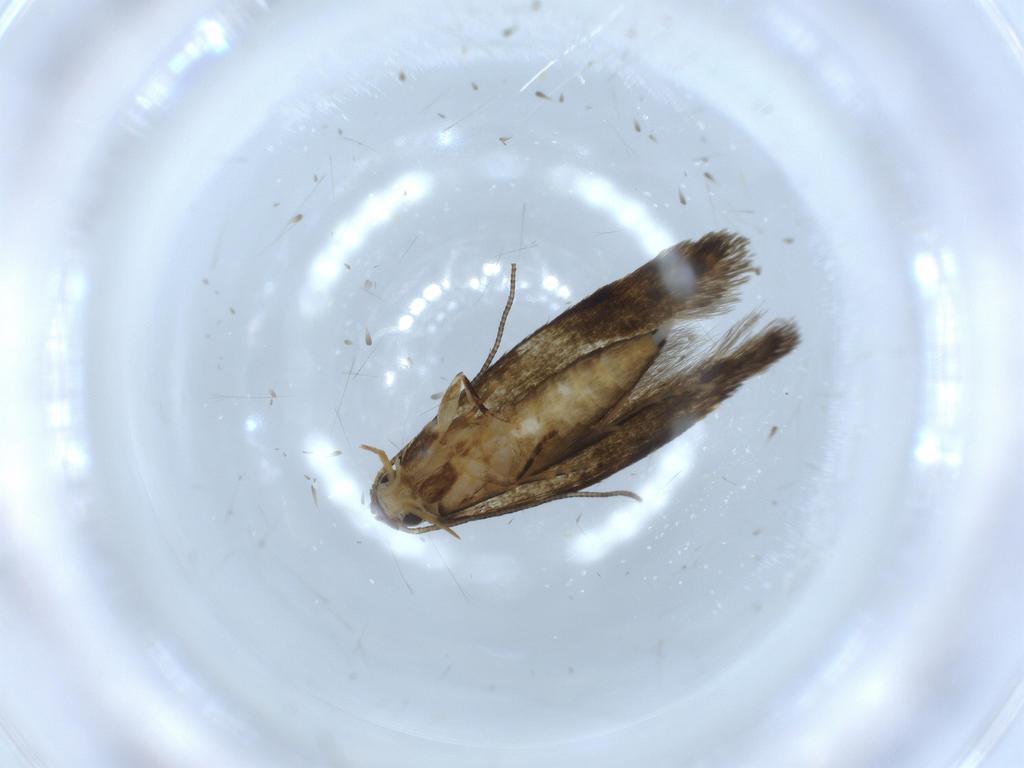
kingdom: Animalia
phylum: Arthropoda
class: Insecta
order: Lepidoptera
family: Tineidae
